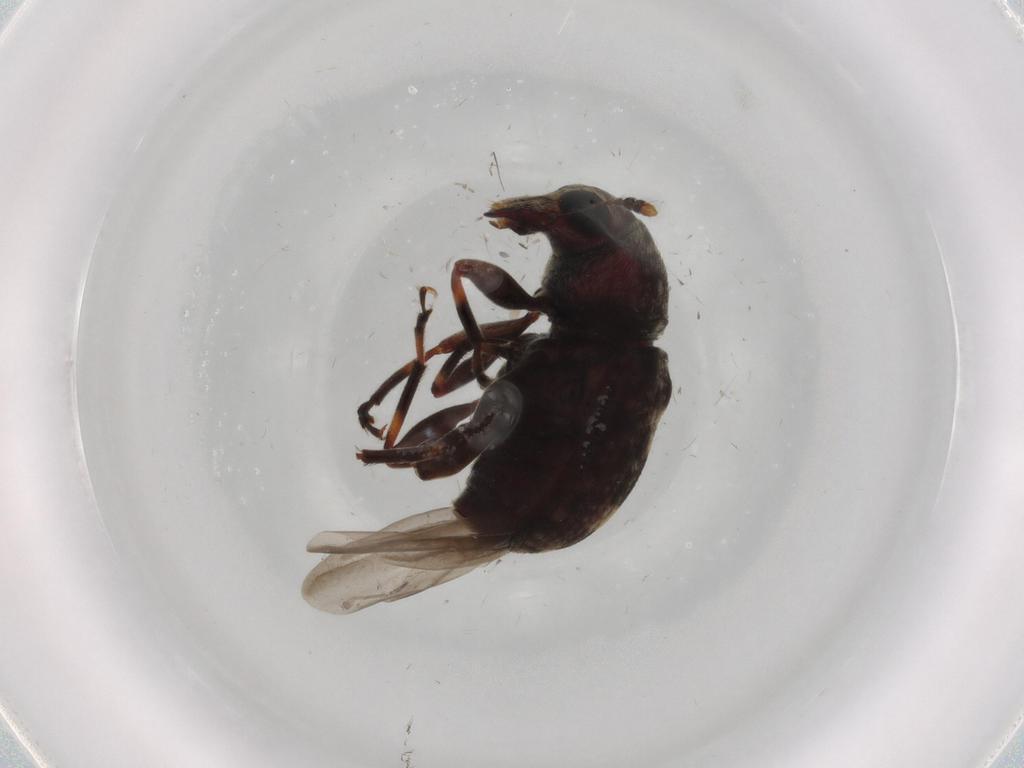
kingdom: Animalia
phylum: Arthropoda
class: Insecta
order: Coleoptera
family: Anthribidae
